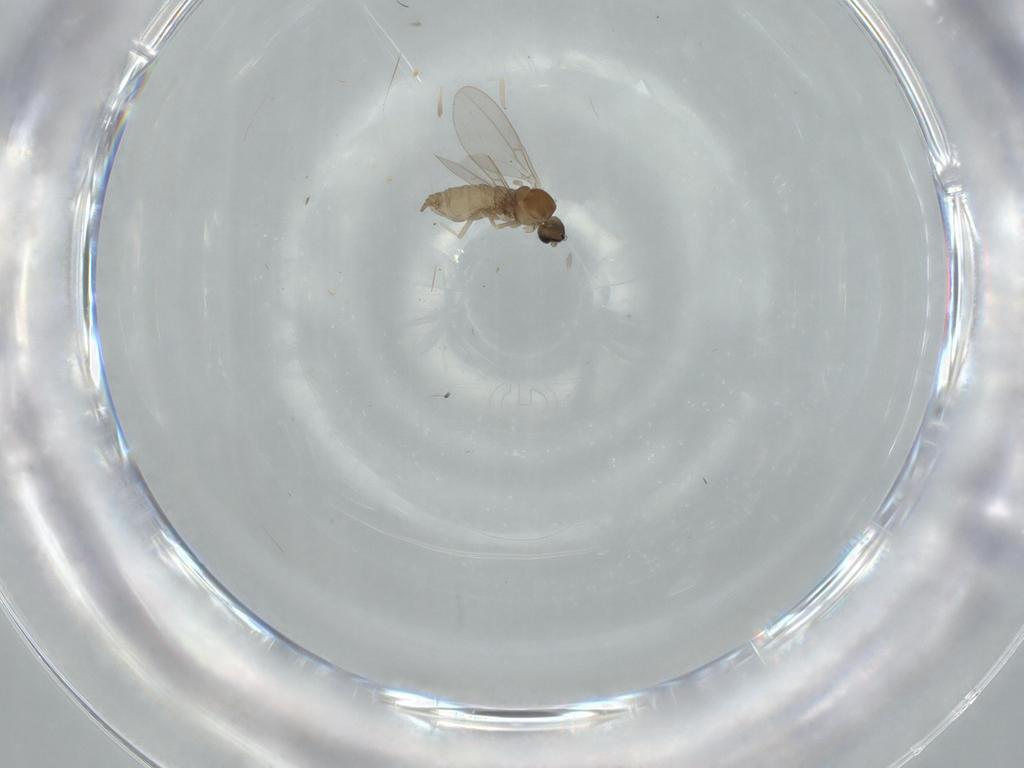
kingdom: Animalia
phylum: Arthropoda
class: Insecta
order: Diptera
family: Cecidomyiidae
